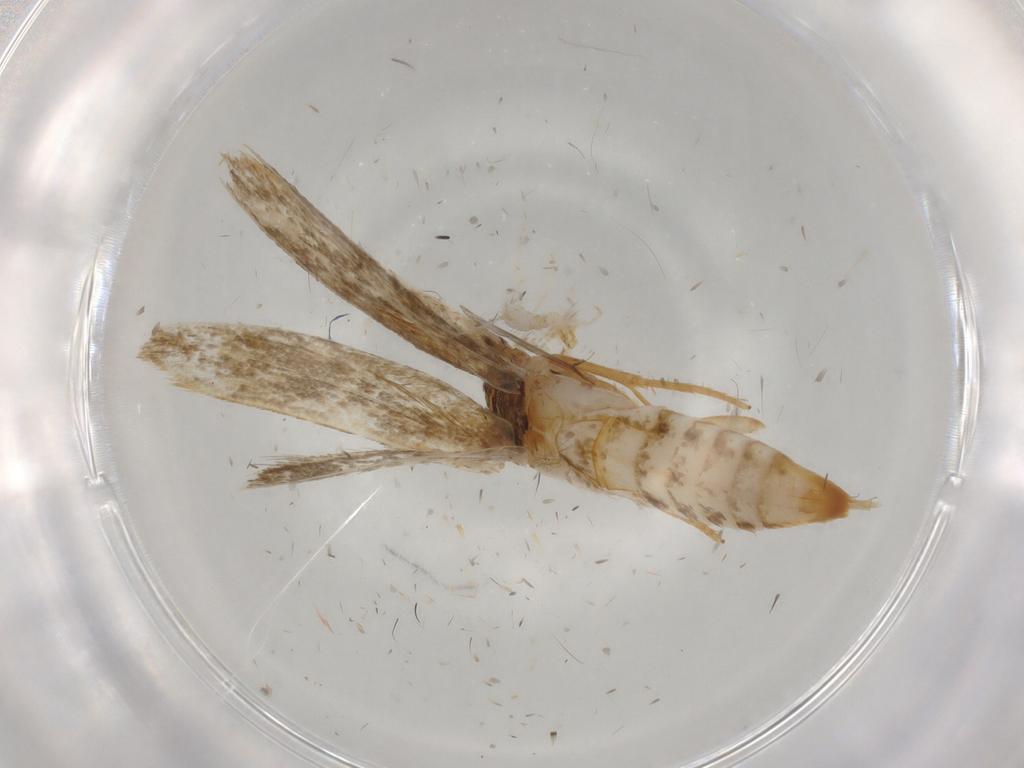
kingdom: Animalia
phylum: Arthropoda
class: Insecta
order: Lepidoptera
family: Tineidae
